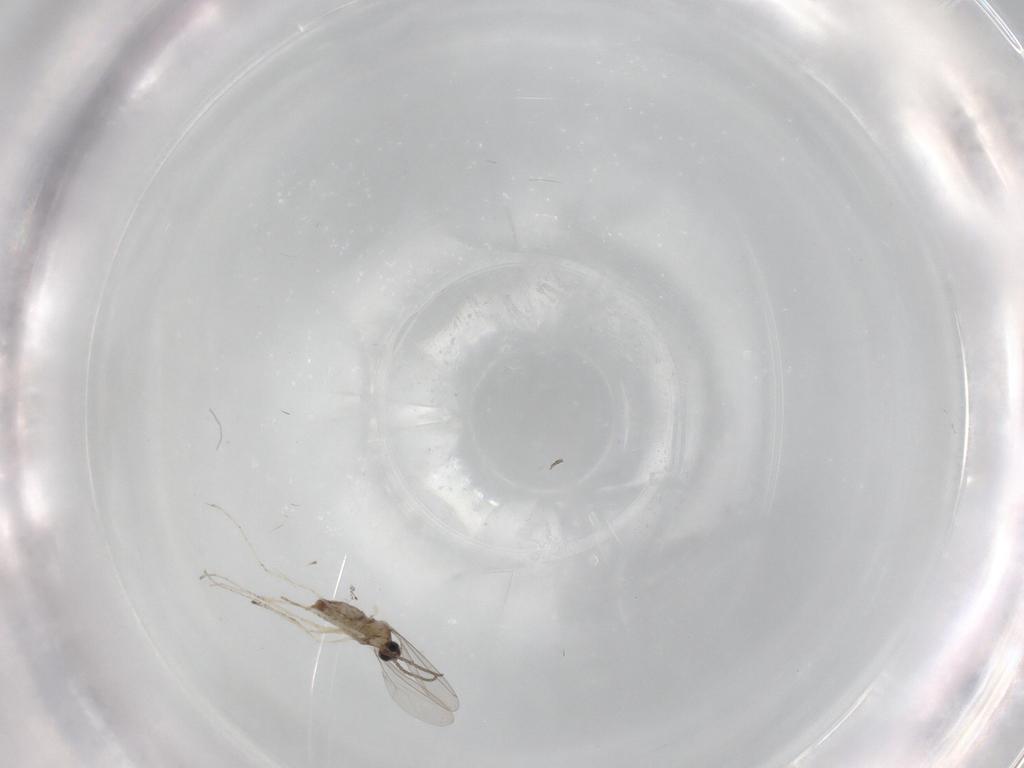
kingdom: Animalia
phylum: Arthropoda
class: Insecta
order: Diptera
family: Cecidomyiidae
